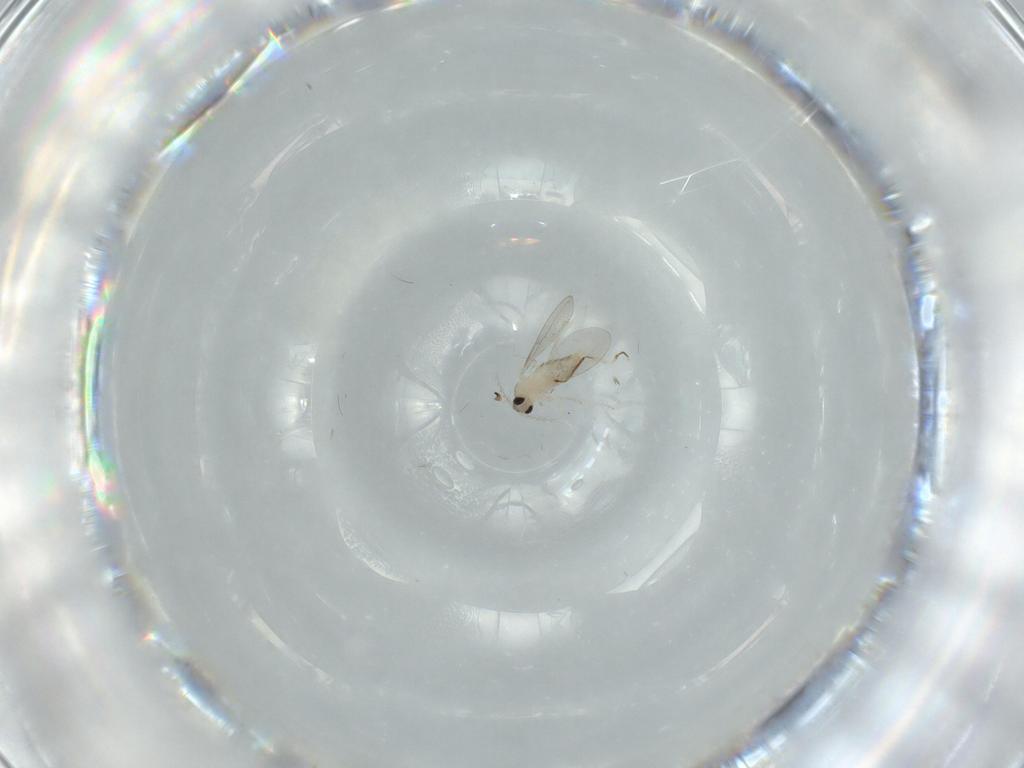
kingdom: Animalia
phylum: Arthropoda
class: Insecta
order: Diptera
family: Cecidomyiidae
